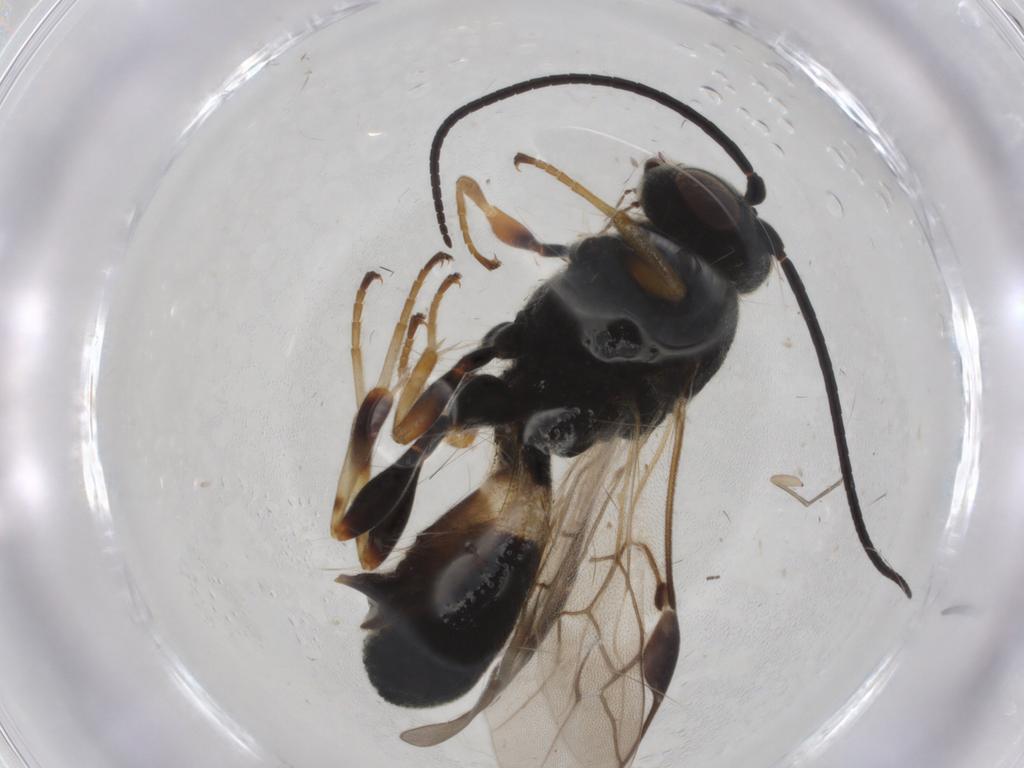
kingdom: Animalia
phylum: Arthropoda
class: Insecta
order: Hymenoptera
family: Braconidae
